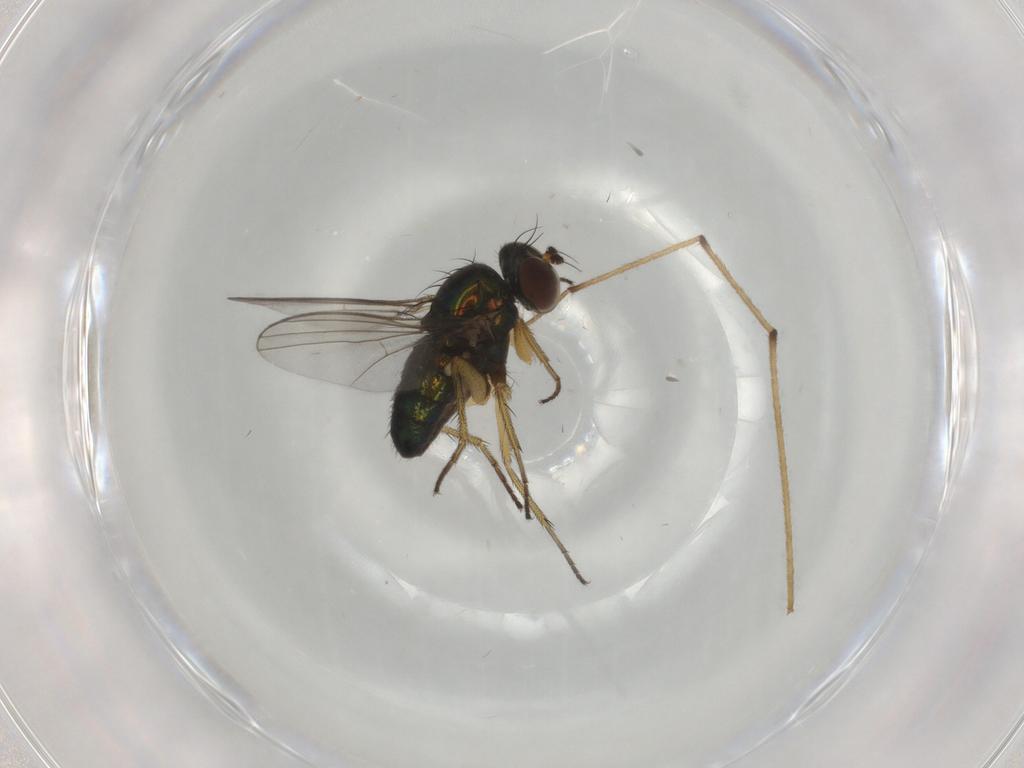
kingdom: Animalia
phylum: Arthropoda
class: Insecta
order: Diptera
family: Dolichopodidae
